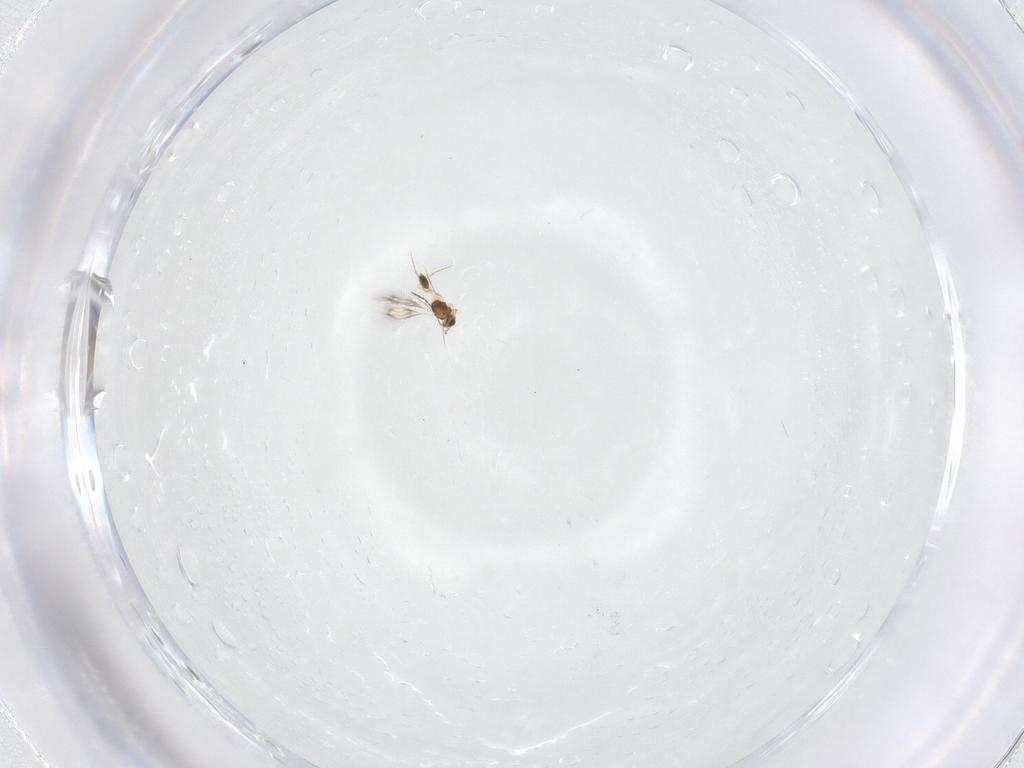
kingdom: Animalia
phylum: Arthropoda
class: Insecta
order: Hymenoptera
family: Mymarommatidae
